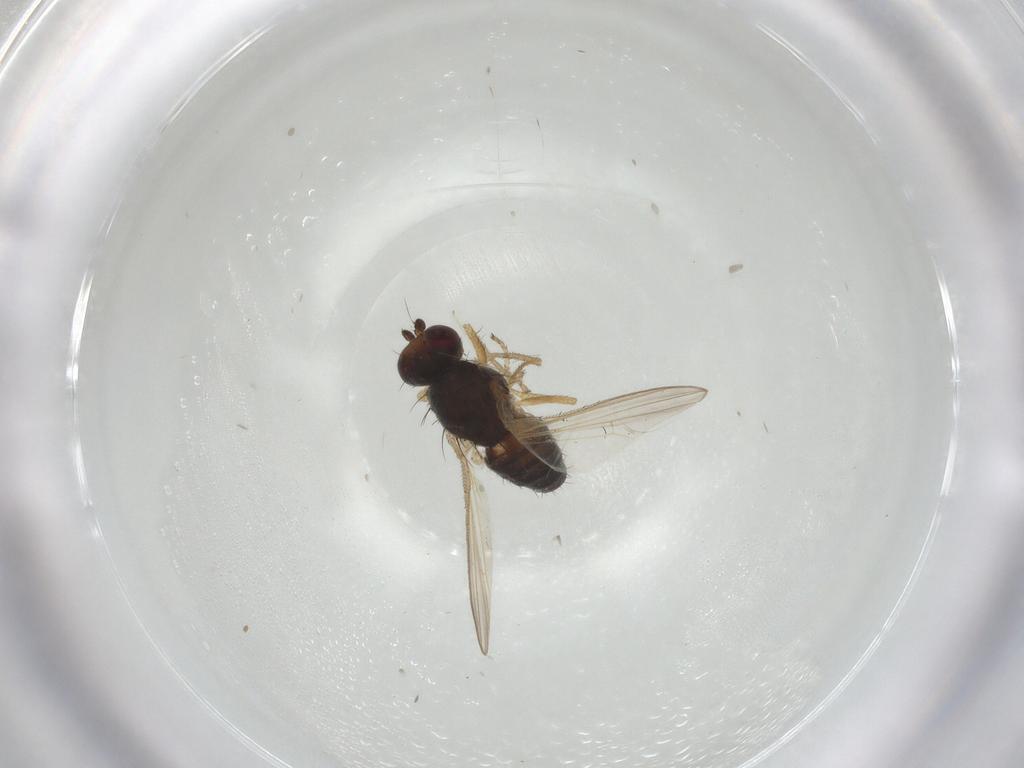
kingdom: Animalia
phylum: Arthropoda
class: Insecta
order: Diptera
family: Heleomyzidae
